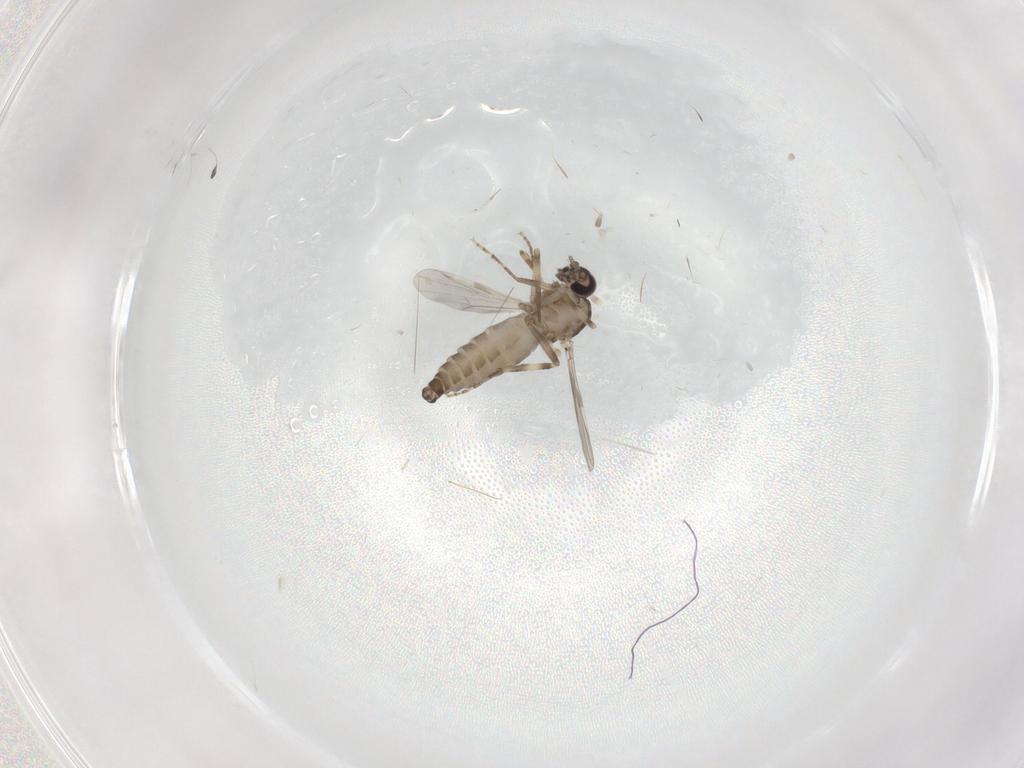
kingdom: Animalia
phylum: Arthropoda
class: Insecta
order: Diptera
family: Ceratopogonidae
